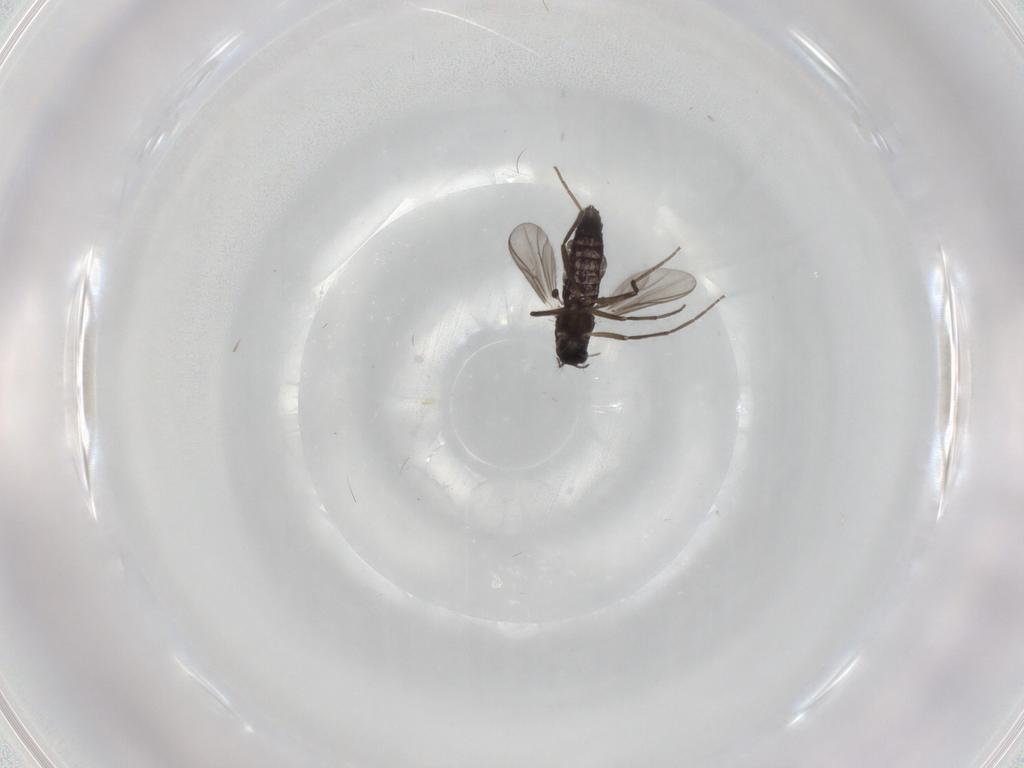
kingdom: Animalia
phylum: Arthropoda
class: Insecta
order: Diptera
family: Chironomidae
